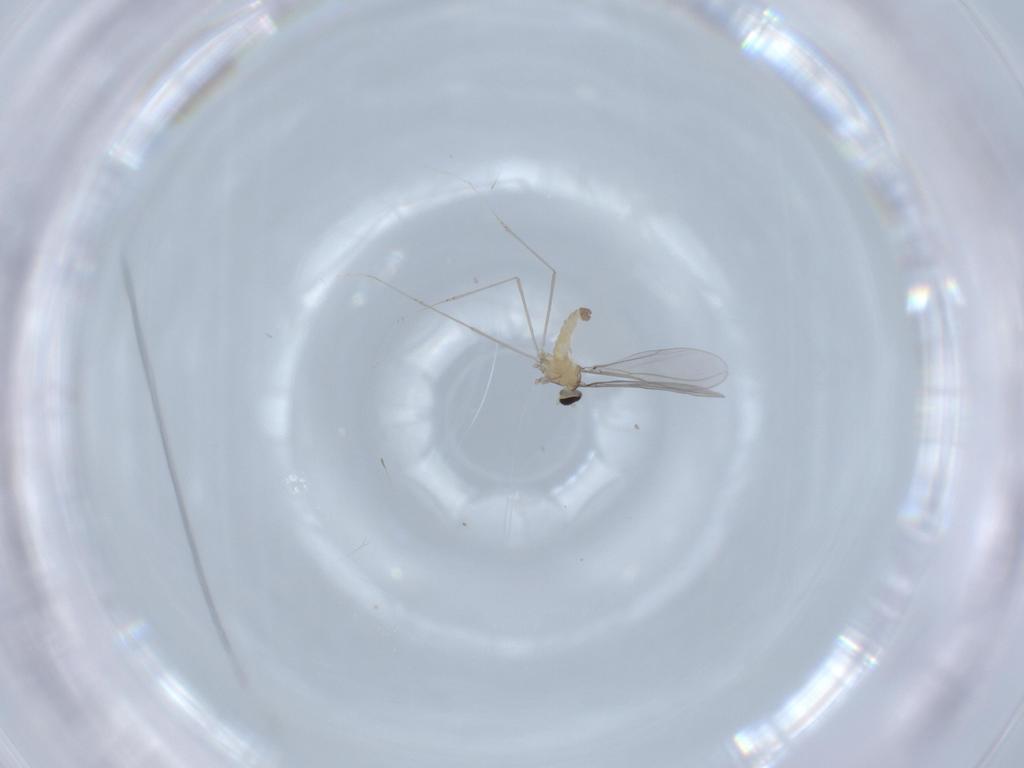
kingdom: Animalia
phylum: Arthropoda
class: Insecta
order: Diptera
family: Cecidomyiidae
